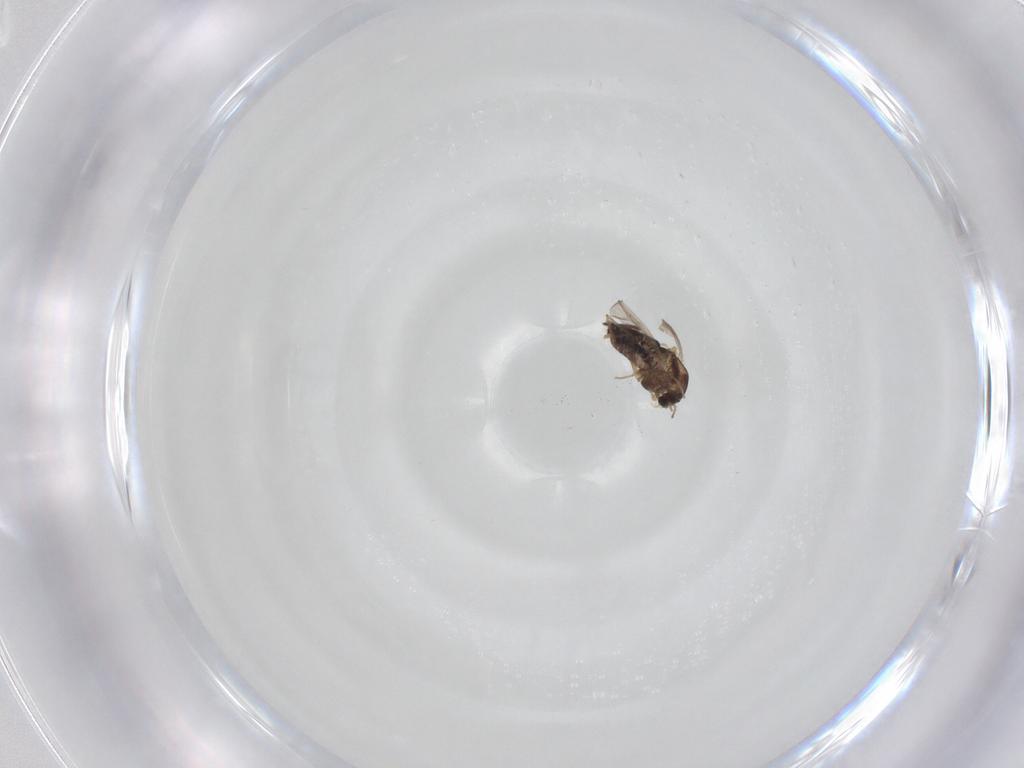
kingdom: Animalia
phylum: Arthropoda
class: Insecta
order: Diptera
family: Chironomidae
